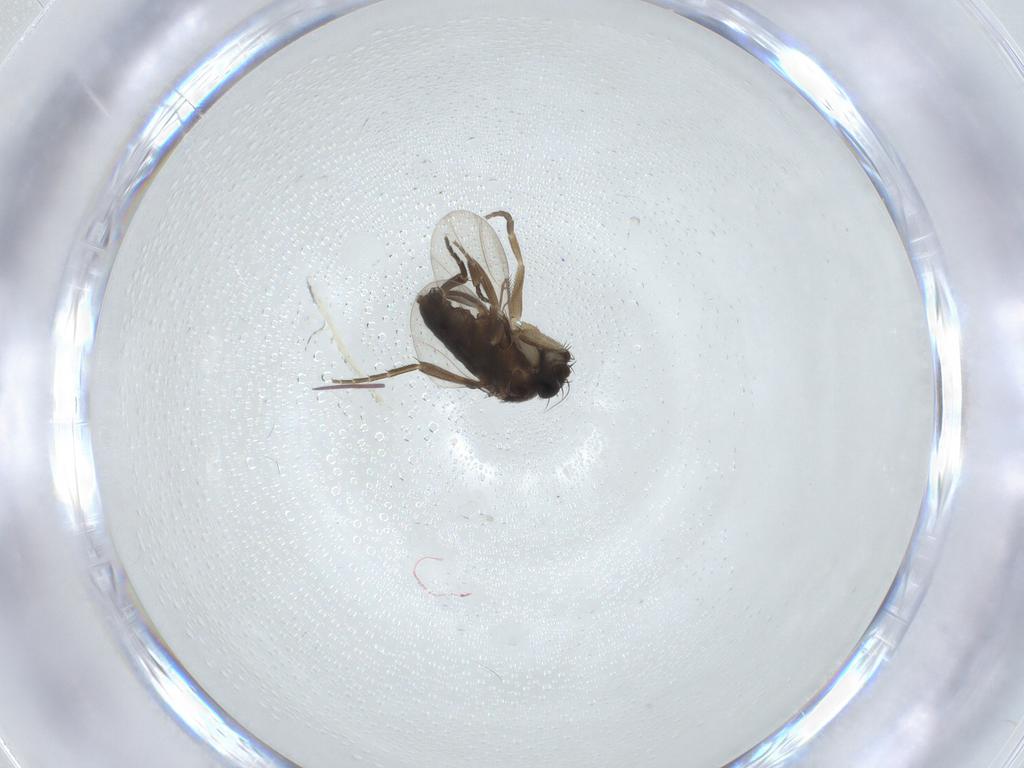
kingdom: Animalia
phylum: Arthropoda
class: Insecta
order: Diptera
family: Phoridae
